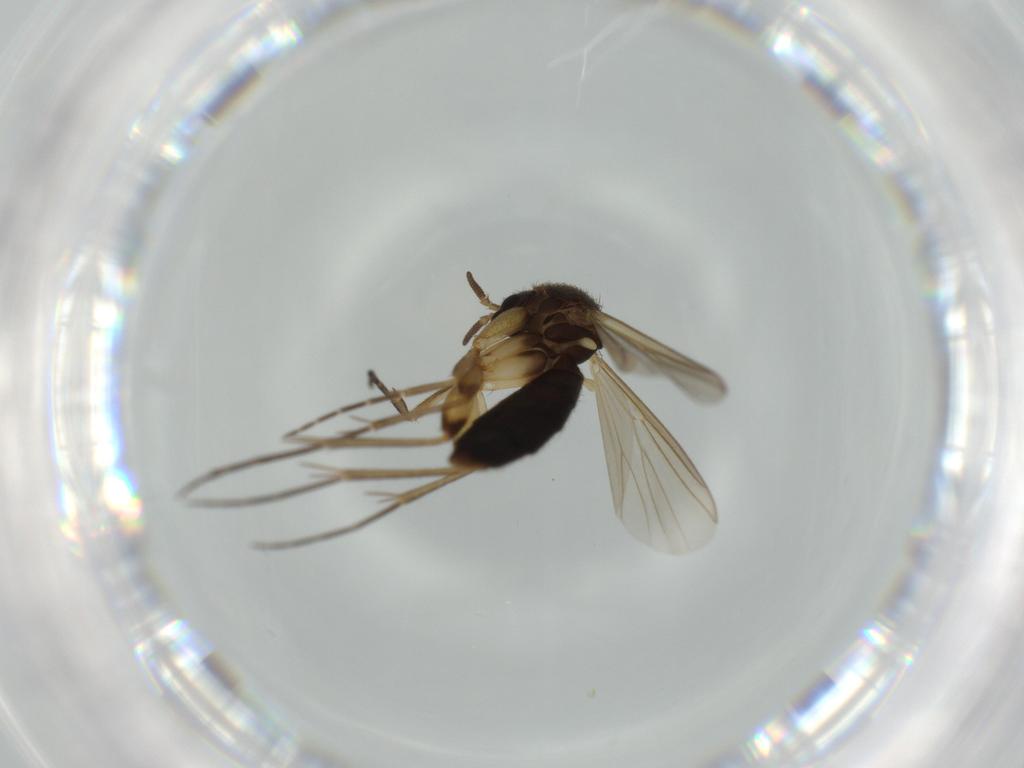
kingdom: Animalia
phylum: Arthropoda
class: Insecta
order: Diptera
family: Mycetophilidae
